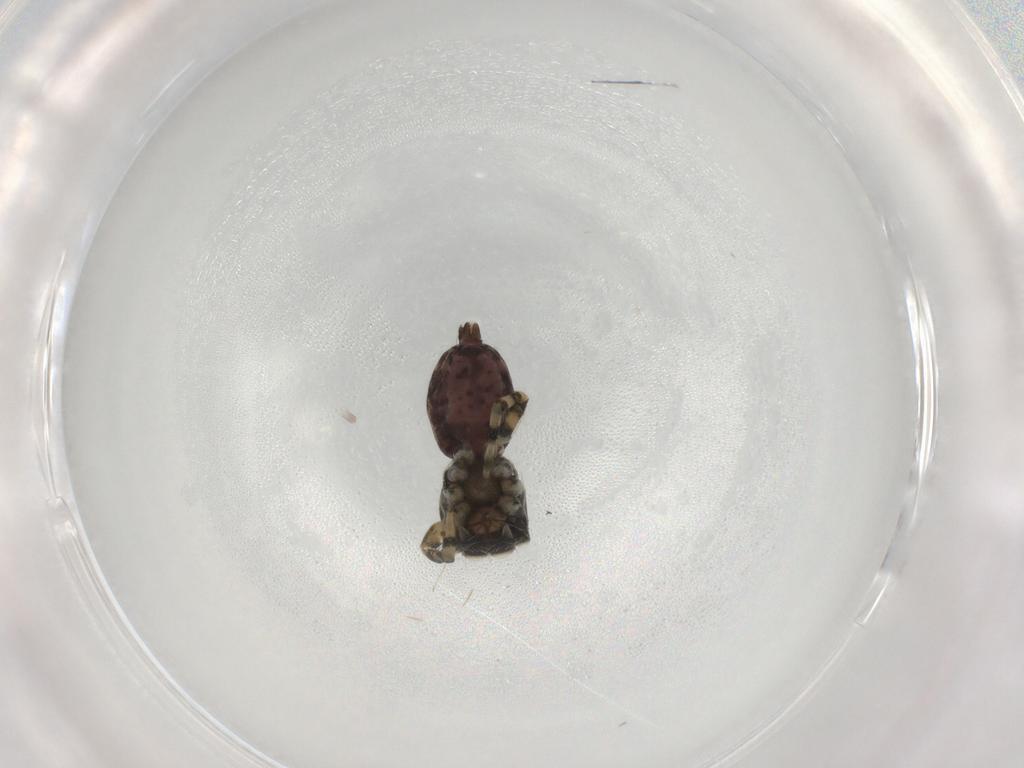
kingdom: Animalia
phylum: Arthropoda
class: Arachnida
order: Araneae
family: Salticidae
